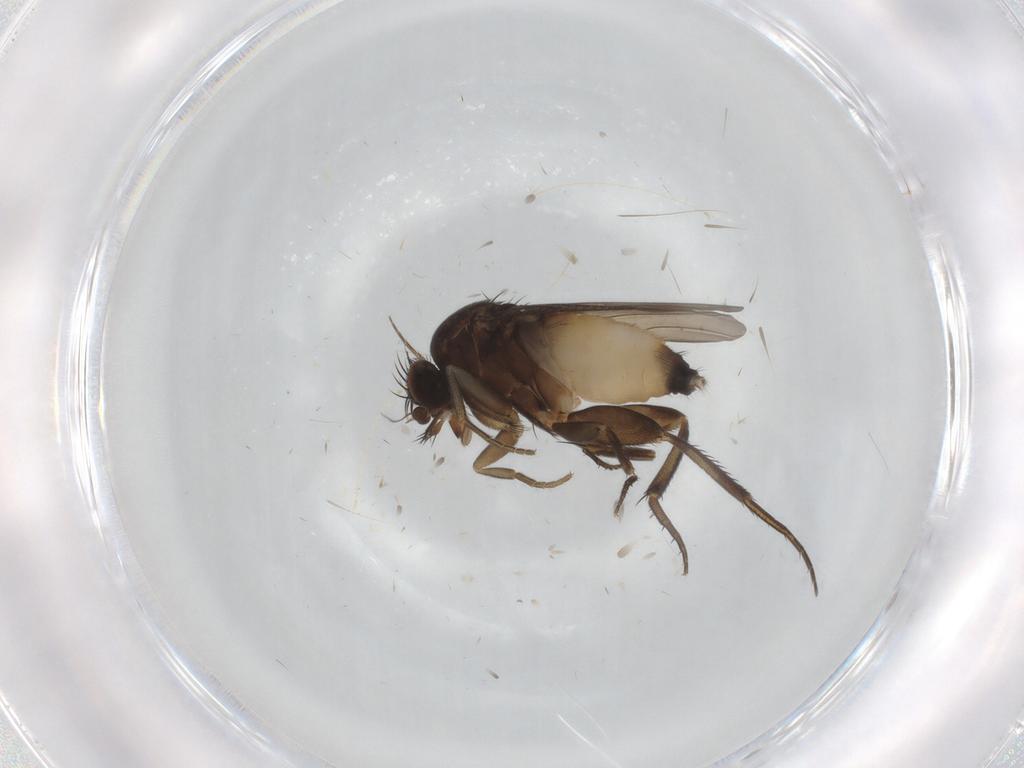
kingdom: Animalia
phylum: Arthropoda
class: Insecta
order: Diptera
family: Phoridae
